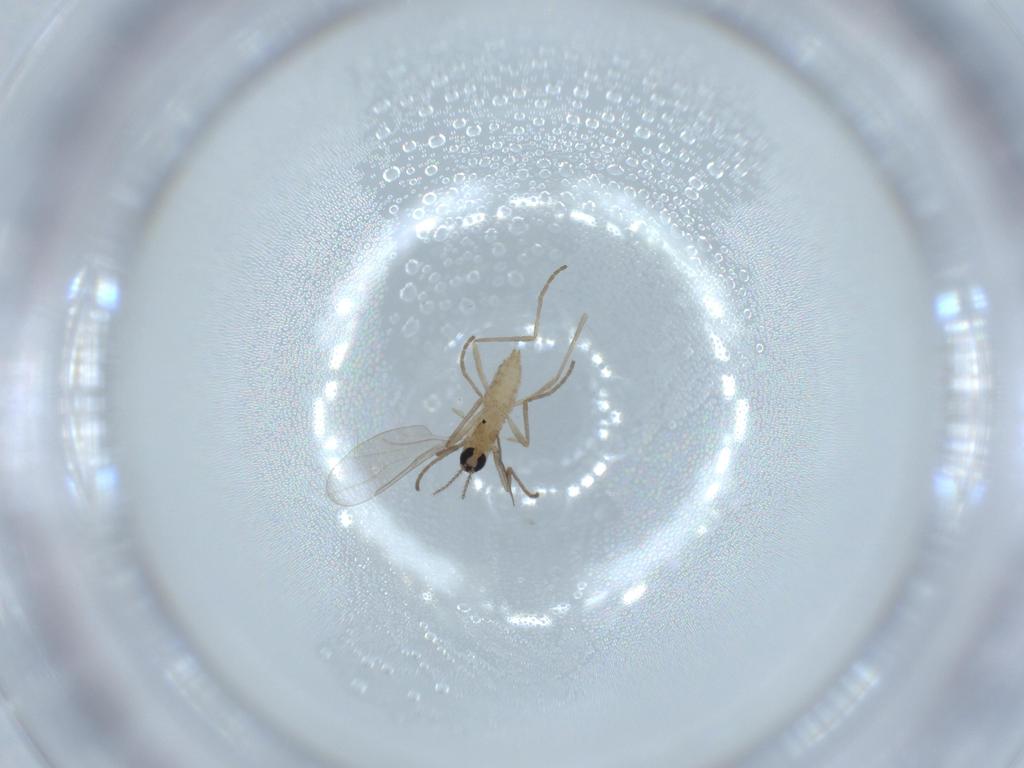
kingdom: Animalia
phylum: Arthropoda
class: Insecta
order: Diptera
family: Cecidomyiidae
